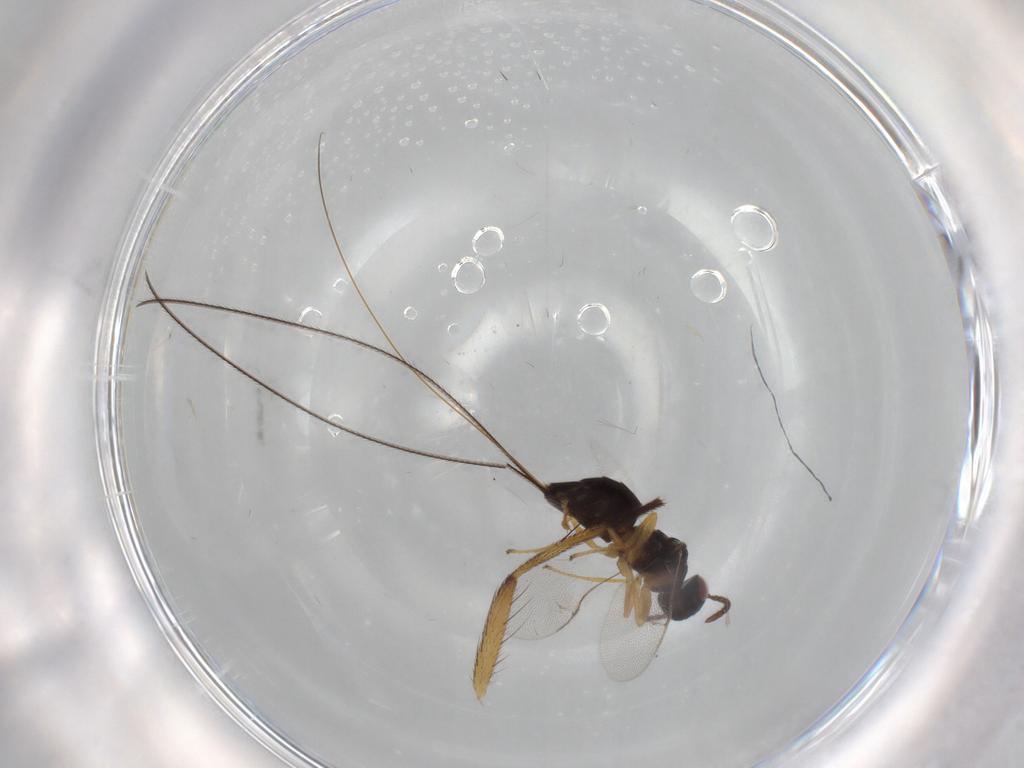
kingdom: Animalia
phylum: Arthropoda
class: Insecta
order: Hymenoptera
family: Pteromalidae
